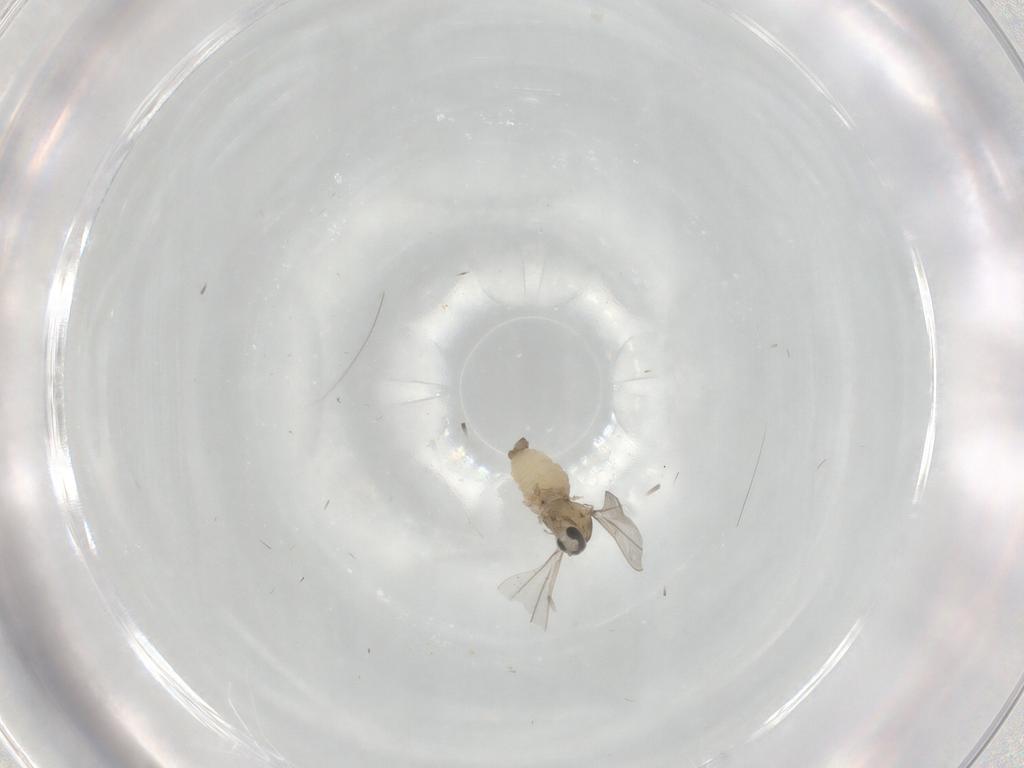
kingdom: Animalia
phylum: Arthropoda
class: Insecta
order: Diptera
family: Cecidomyiidae
